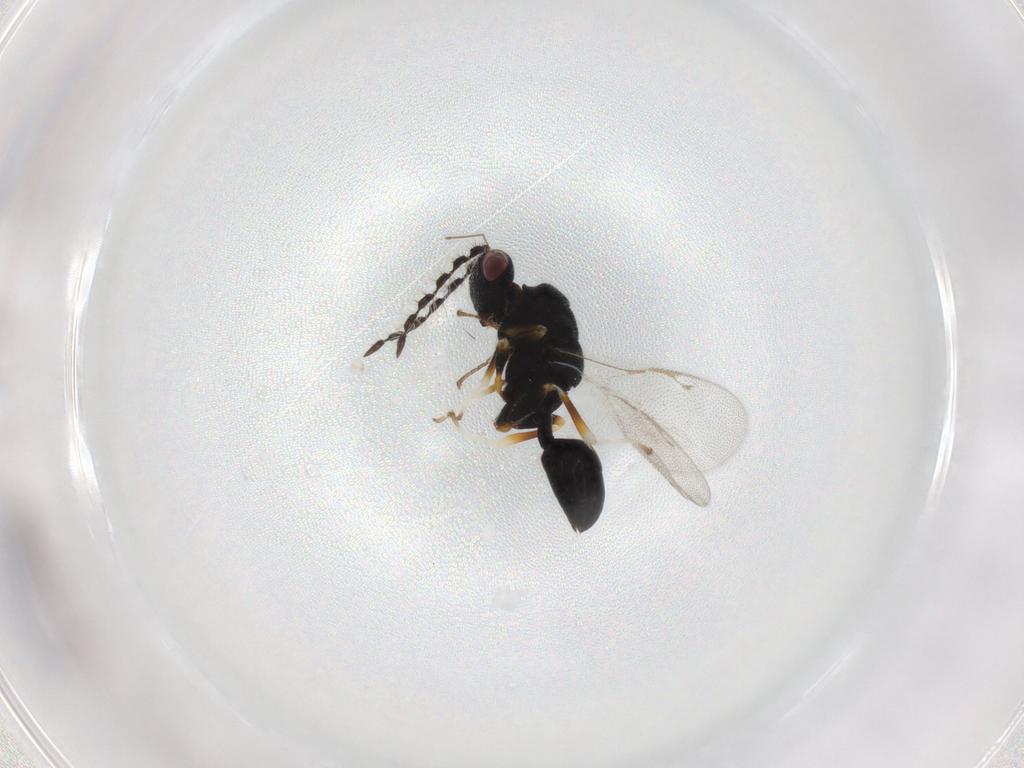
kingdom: Animalia
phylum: Arthropoda
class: Insecta
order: Hymenoptera
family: Eurytomidae
